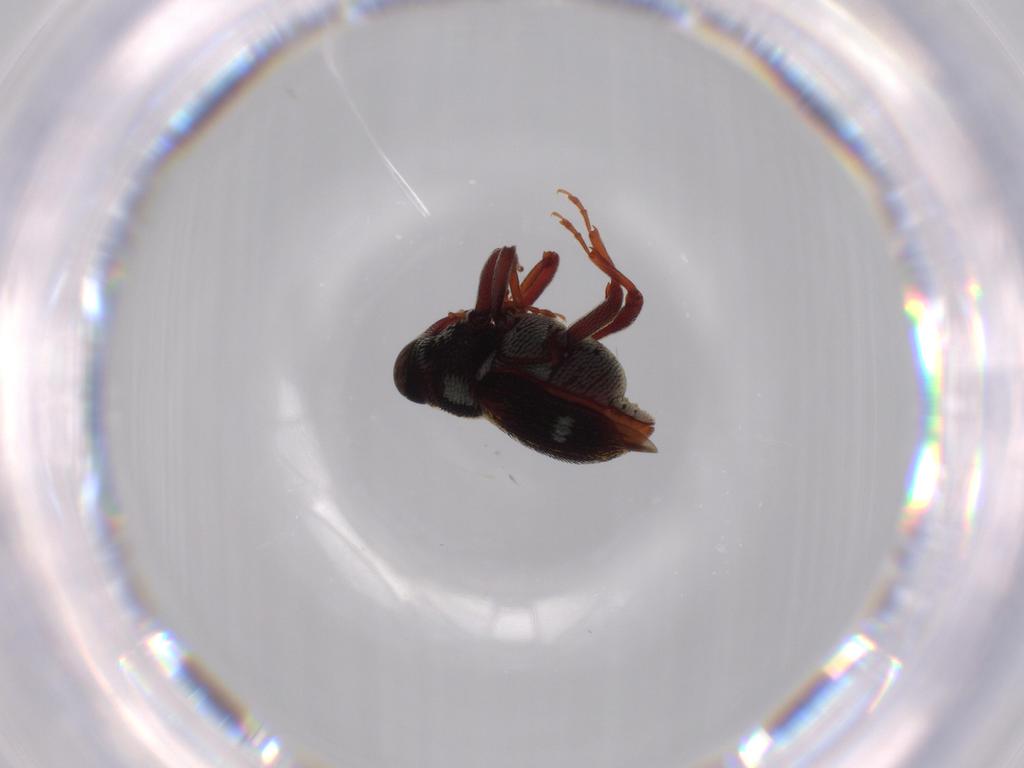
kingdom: Animalia
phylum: Arthropoda
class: Insecta
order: Coleoptera
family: Curculionidae
